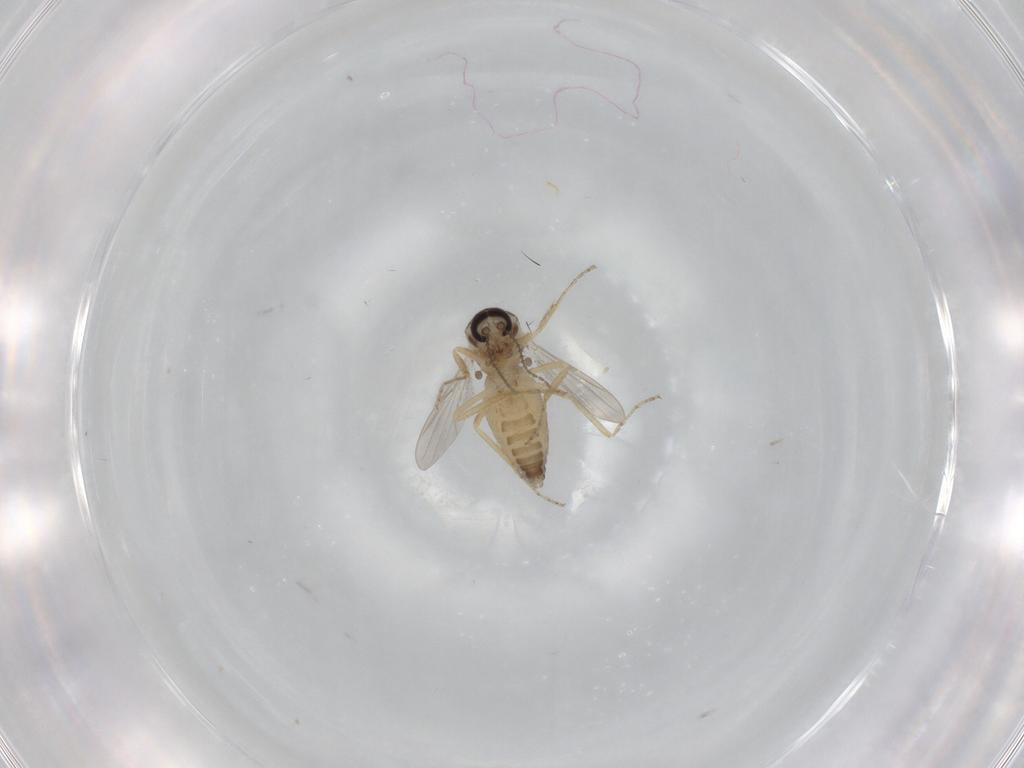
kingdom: Animalia
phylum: Arthropoda
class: Insecta
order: Diptera
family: Ceratopogonidae
